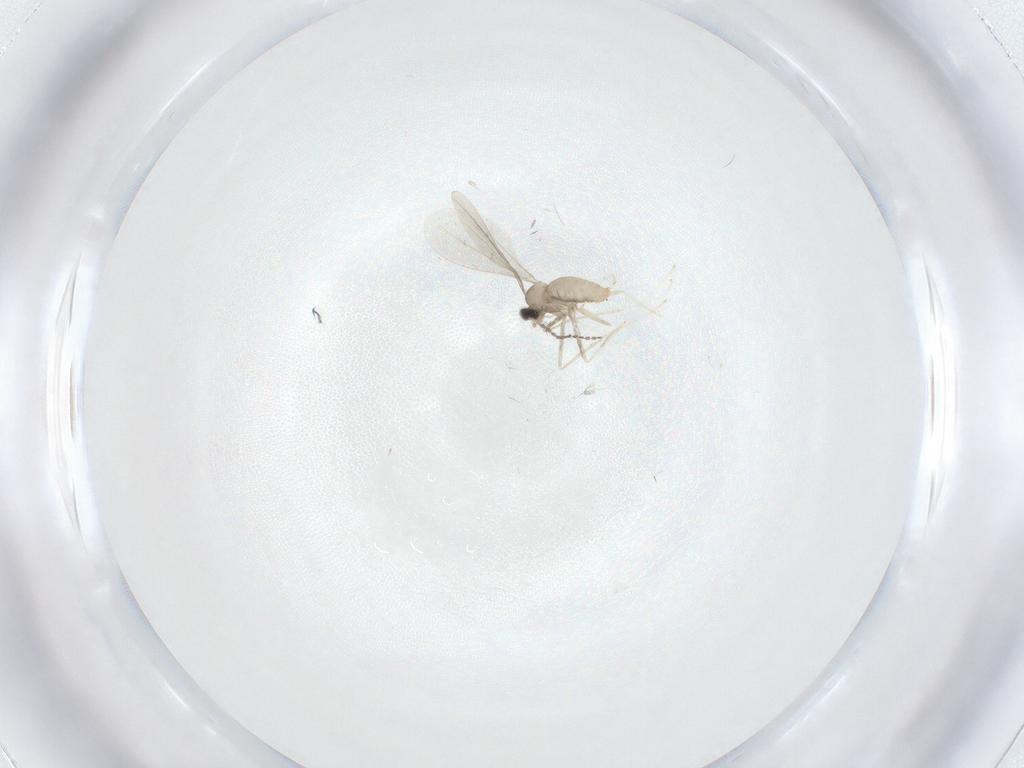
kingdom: Animalia
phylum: Arthropoda
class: Insecta
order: Diptera
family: Cecidomyiidae
